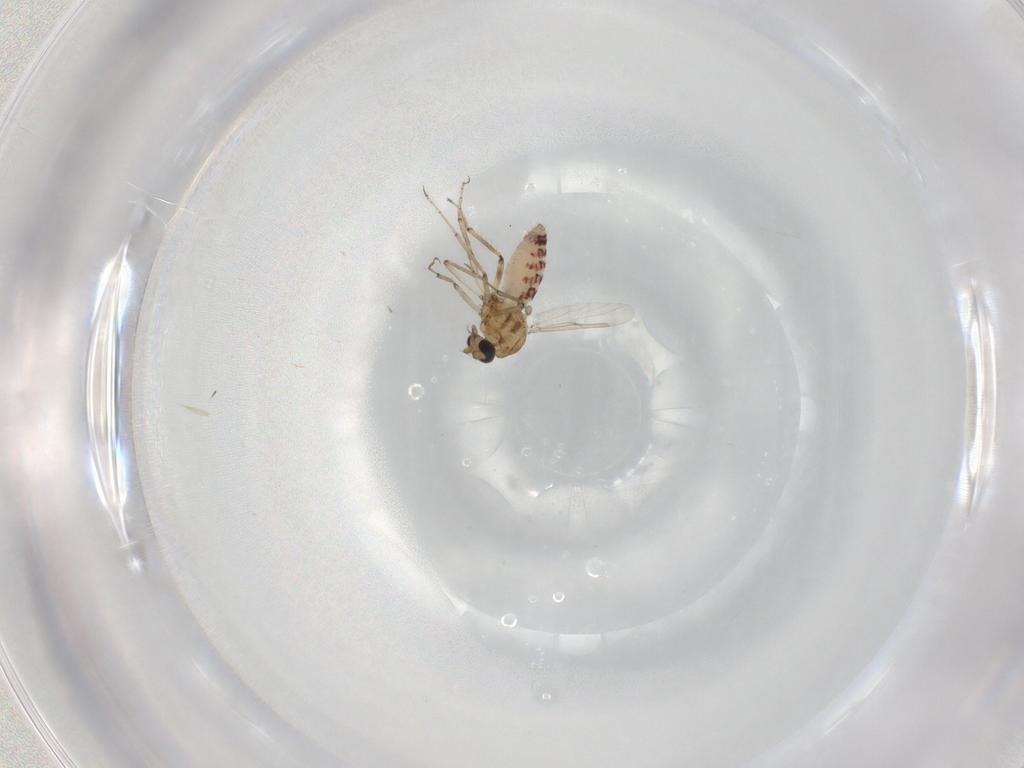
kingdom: Animalia
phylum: Arthropoda
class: Insecta
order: Diptera
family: Ceratopogonidae
